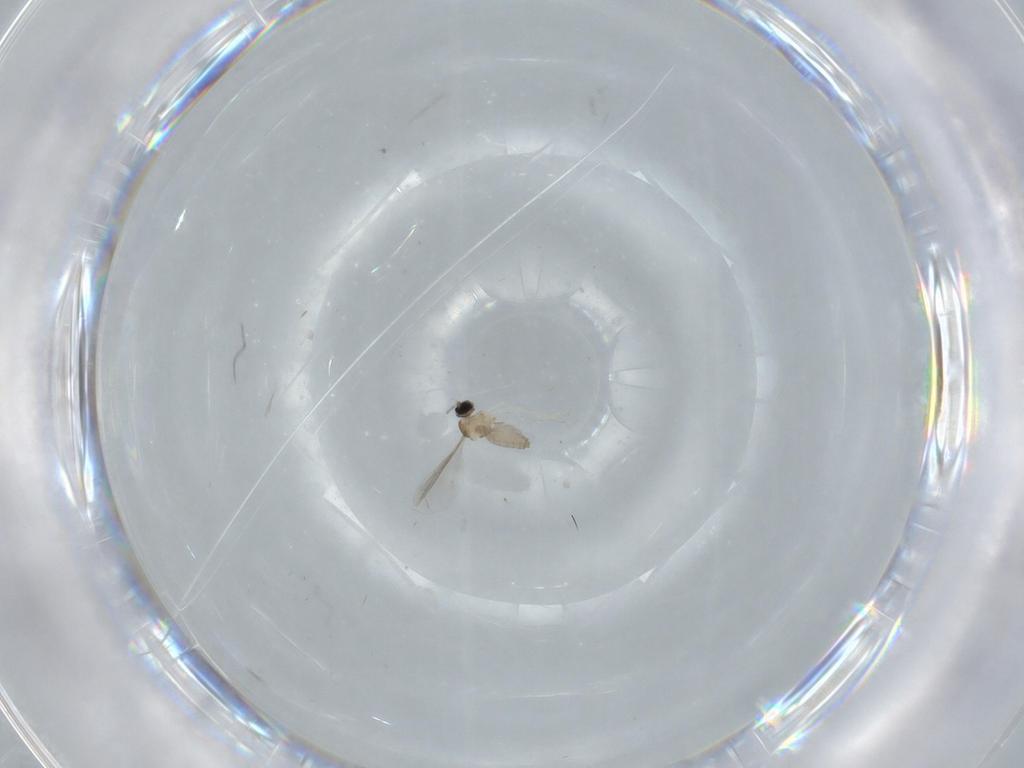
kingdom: Animalia
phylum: Arthropoda
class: Insecta
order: Diptera
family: Cecidomyiidae
